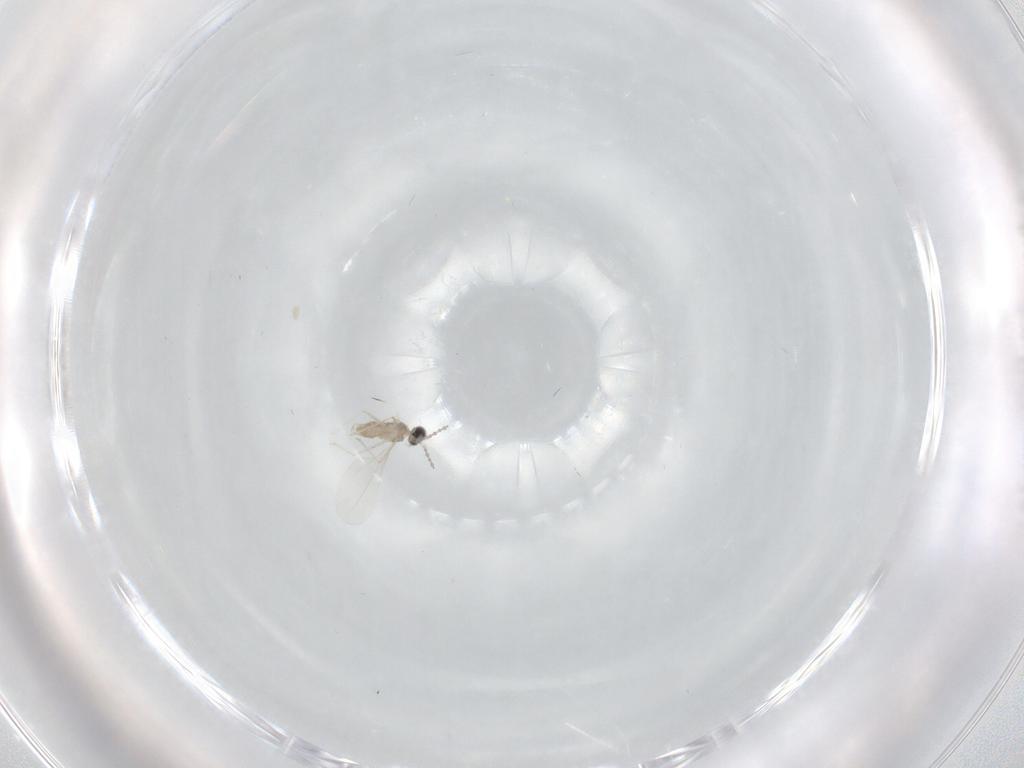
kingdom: Animalia
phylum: Arthropoda
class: Insecta
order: Diptera
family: Cecidomyiidae
